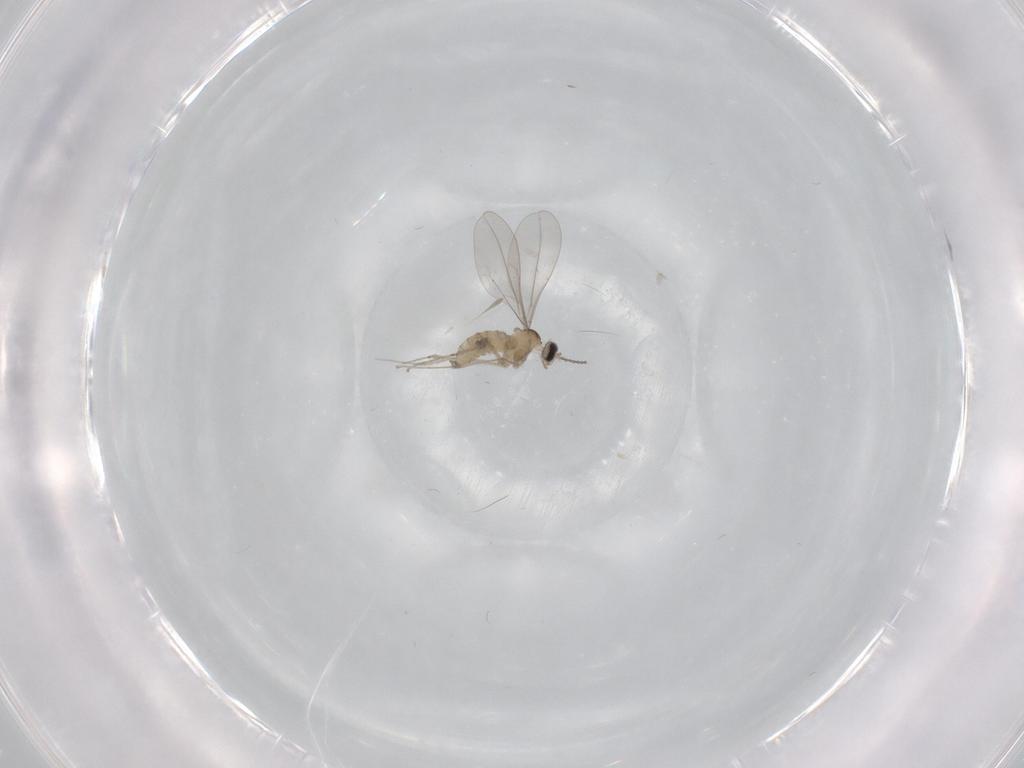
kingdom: Animalia
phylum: Arthropoda
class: Insecta
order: Diptera
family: Cecidomyiidae
